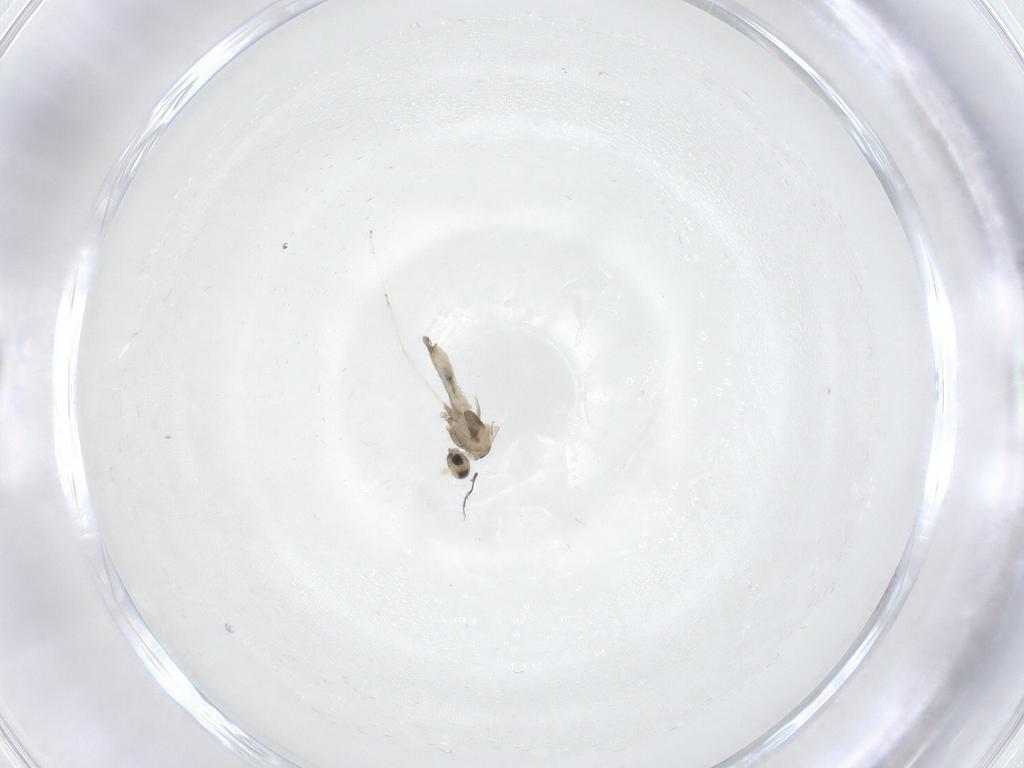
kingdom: Animalia
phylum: Arthropoda
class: Insecta
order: Diptera
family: Cecidomyiidae
